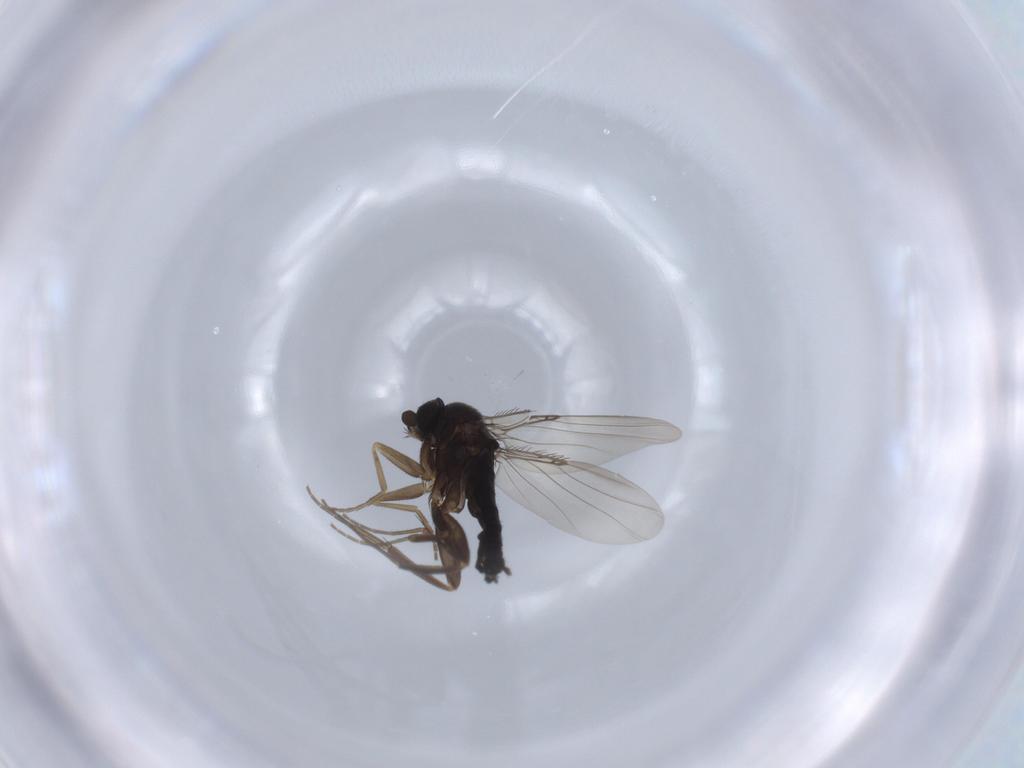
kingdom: Animalia
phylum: Arthropoda
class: Insecta
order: Diptera
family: Phoridae
